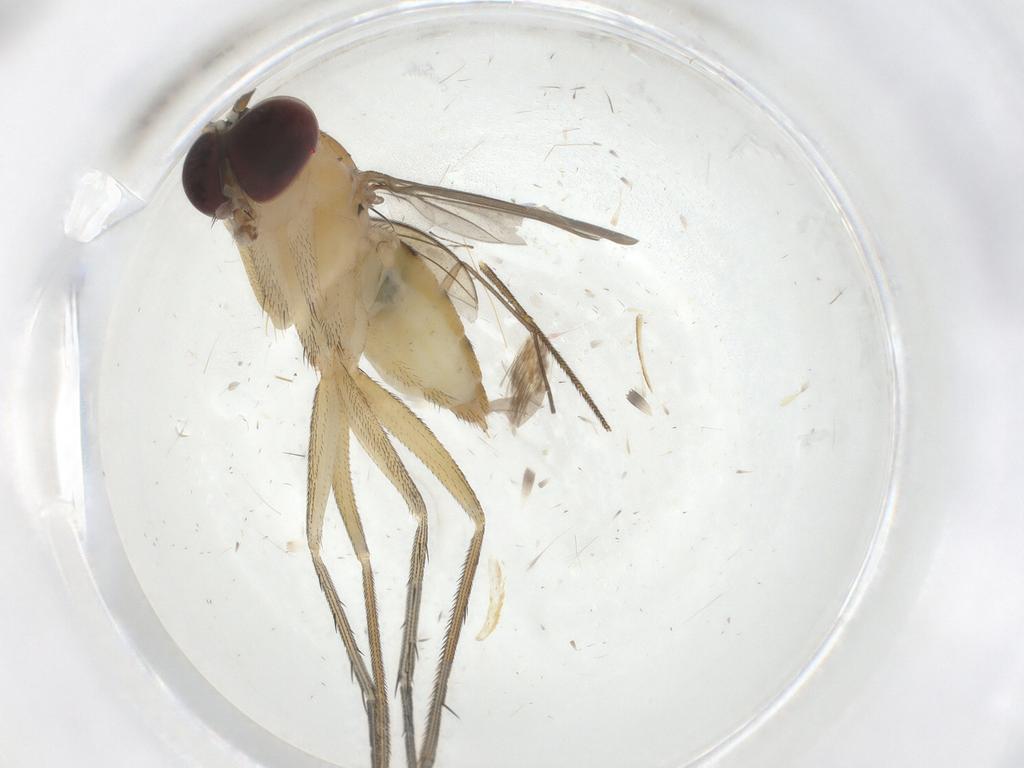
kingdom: Animalia
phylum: Arthropoda
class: Insecta
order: Diptera
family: Dolichopodidae
